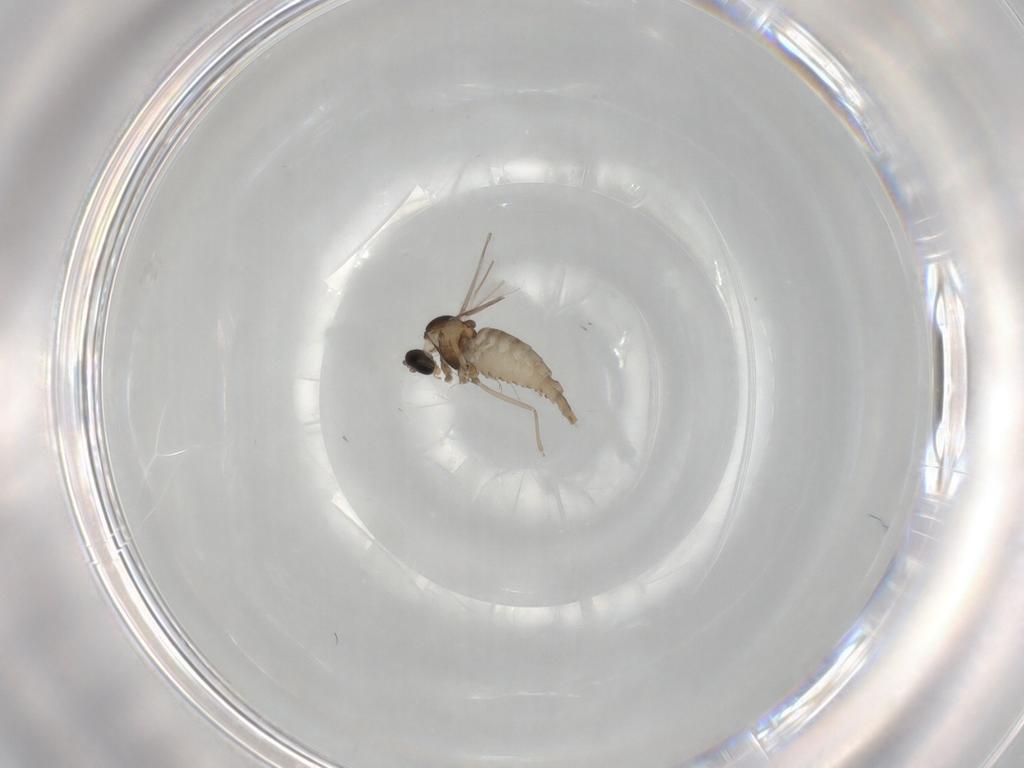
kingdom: Animalia
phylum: Arthropoda
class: Insecta
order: Diptera
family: Cecidomyiidae
